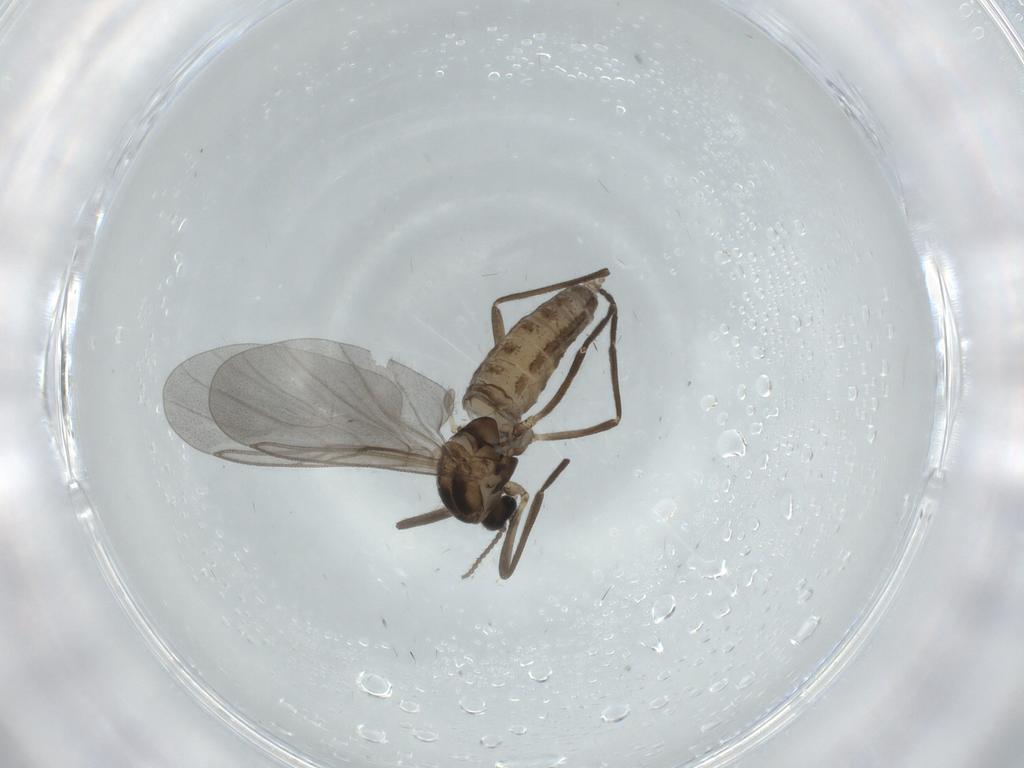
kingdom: Animalia
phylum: Arthropoda
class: Insecta
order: Diptera
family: Cecidomyiidae
